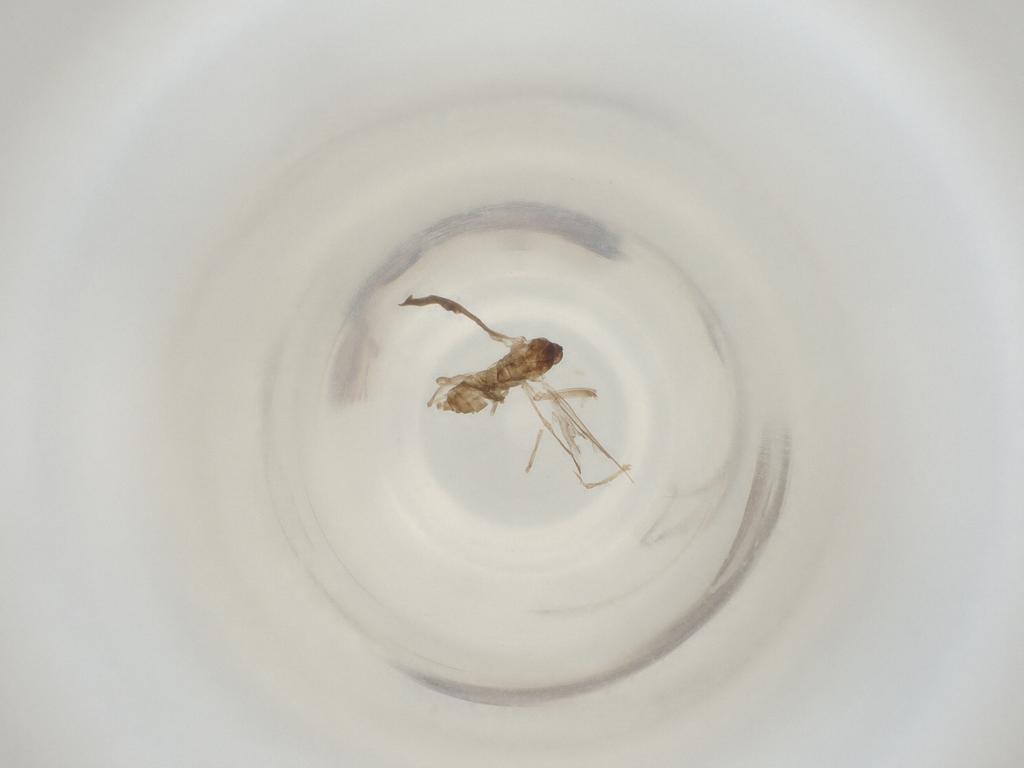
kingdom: Animalia
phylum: Arthropoda
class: Insecta
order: Diptera
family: Cecidomyiidae
